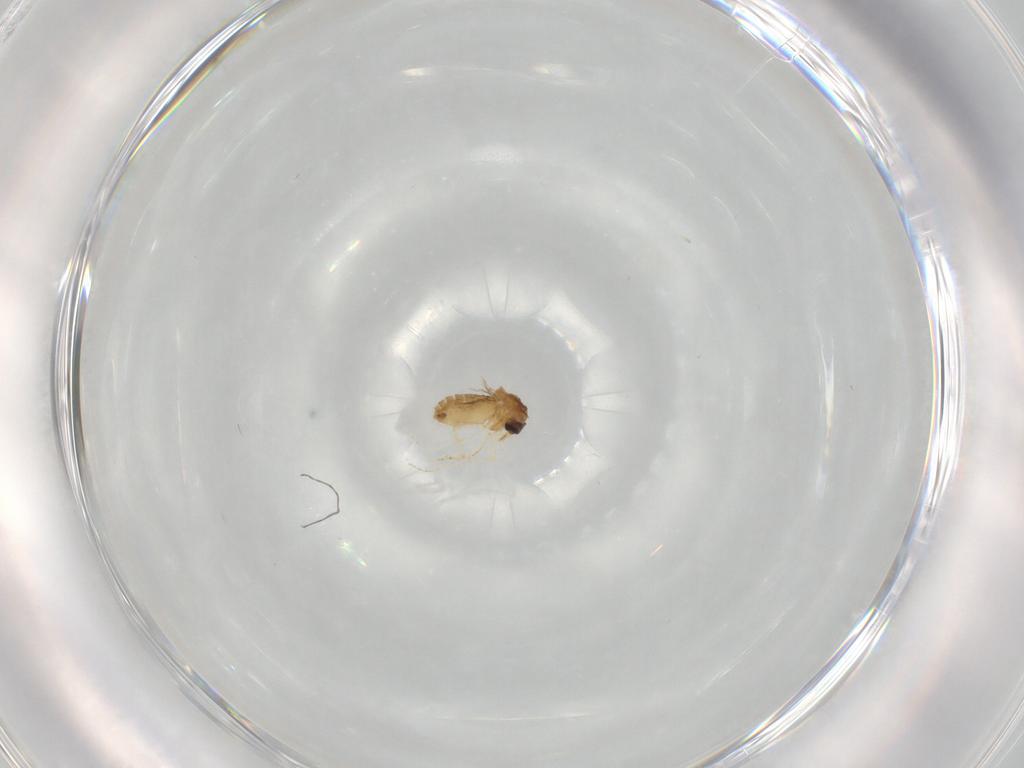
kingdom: Animalia
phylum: Arthropoda
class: Insecta
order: Diptera
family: Ceratopogonidae
